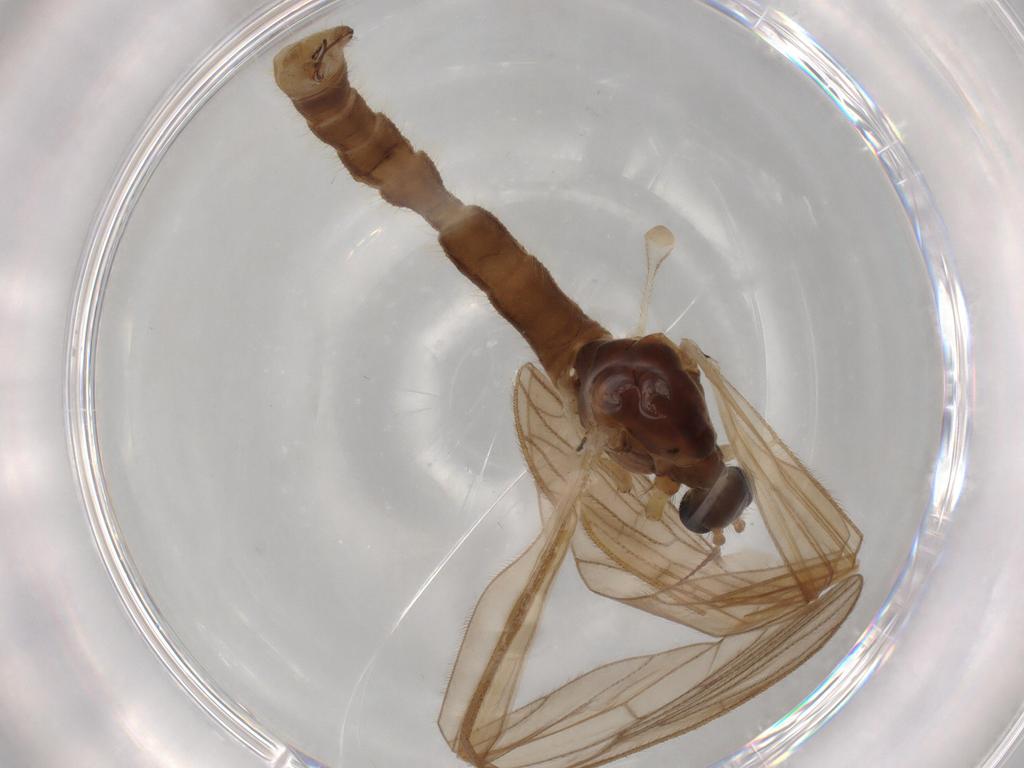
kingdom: Animalia
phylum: Arthropoda
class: Insecta
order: Diptera
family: Limoniidae
